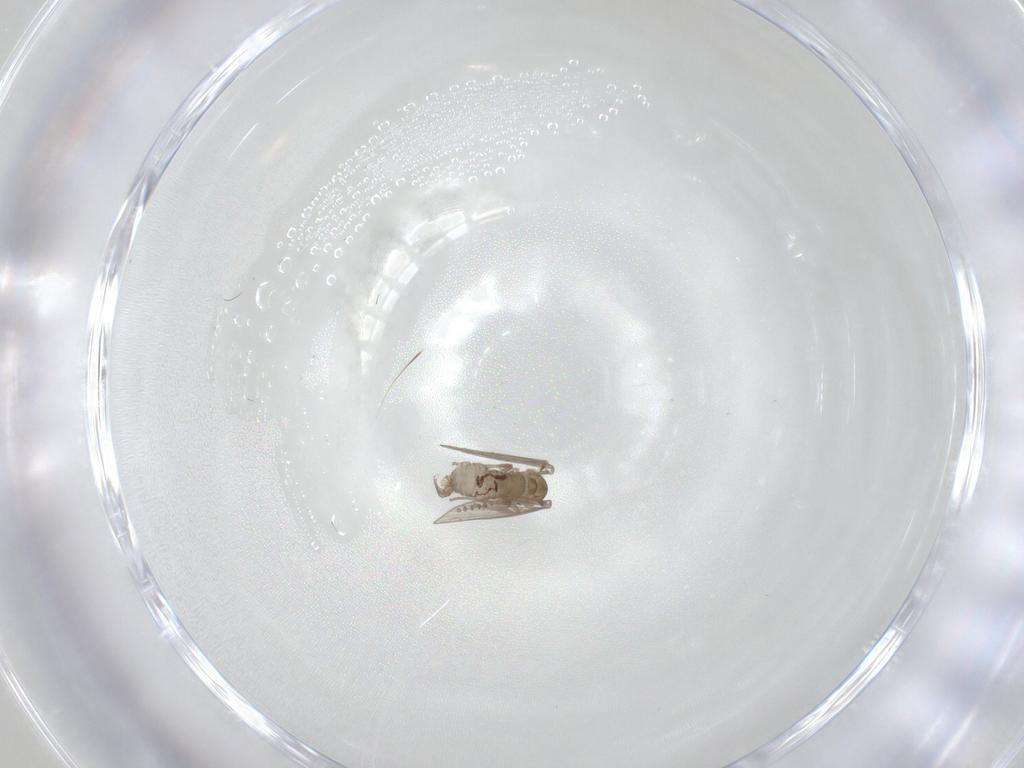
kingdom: Animalia
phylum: Arthropoda
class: Insecta
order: Diptera
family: Psychodidae
